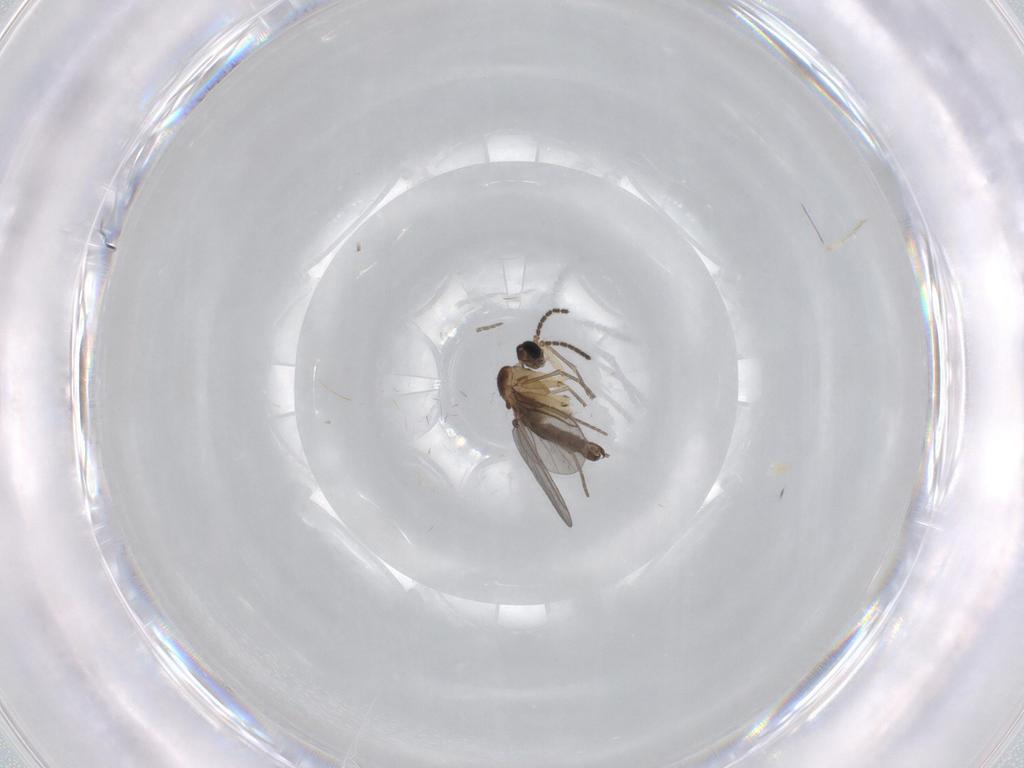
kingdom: Animalia
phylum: Arthropoda
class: Insecta
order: Diptera
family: Sciaridae
